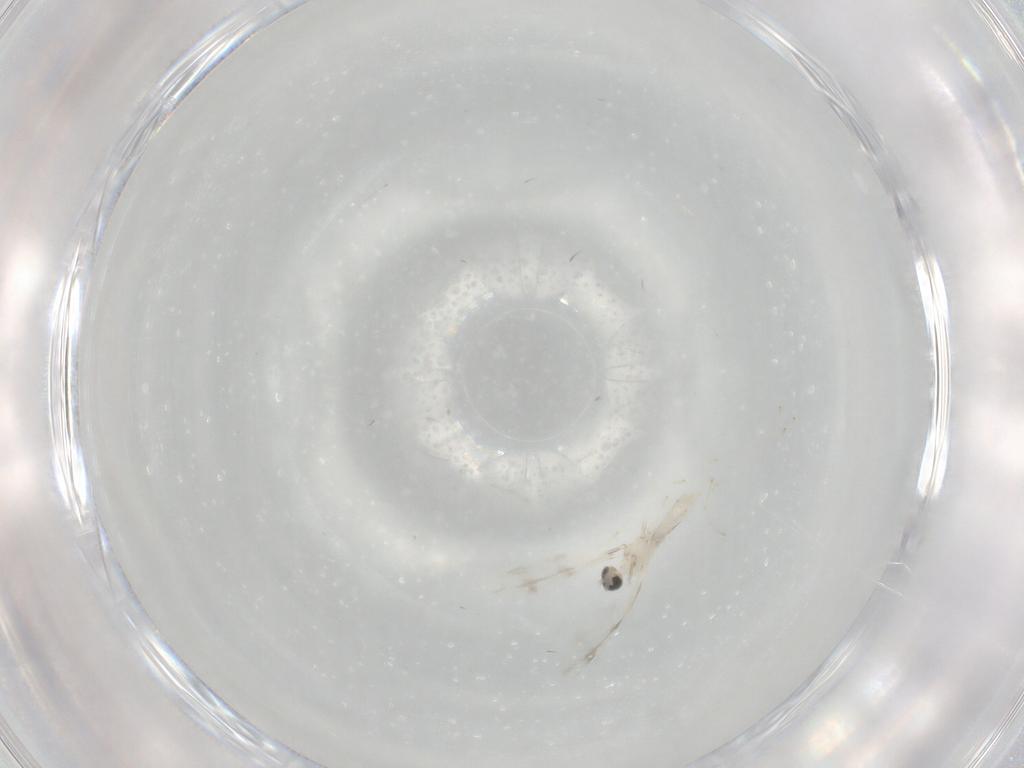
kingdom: Animalia
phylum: Arthropoda
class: Insecta
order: Diptera
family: Cecidomyiidae
